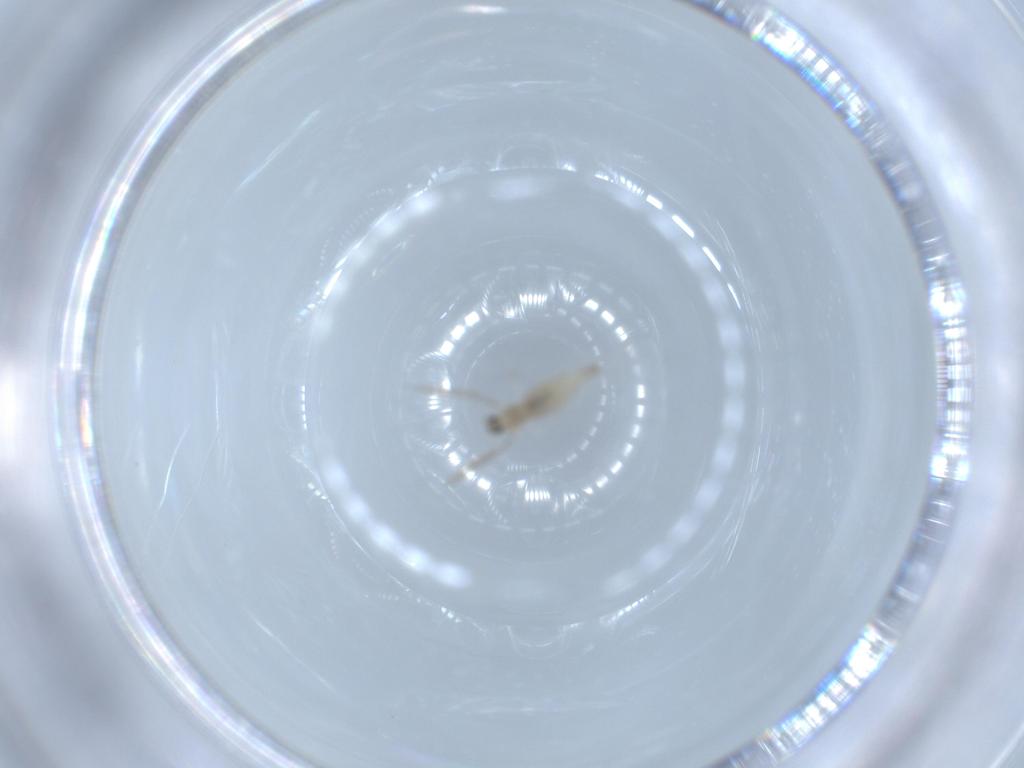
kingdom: Animalia
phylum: Arthropoda
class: Insecta
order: Diptera
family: Cecidomyiidae
